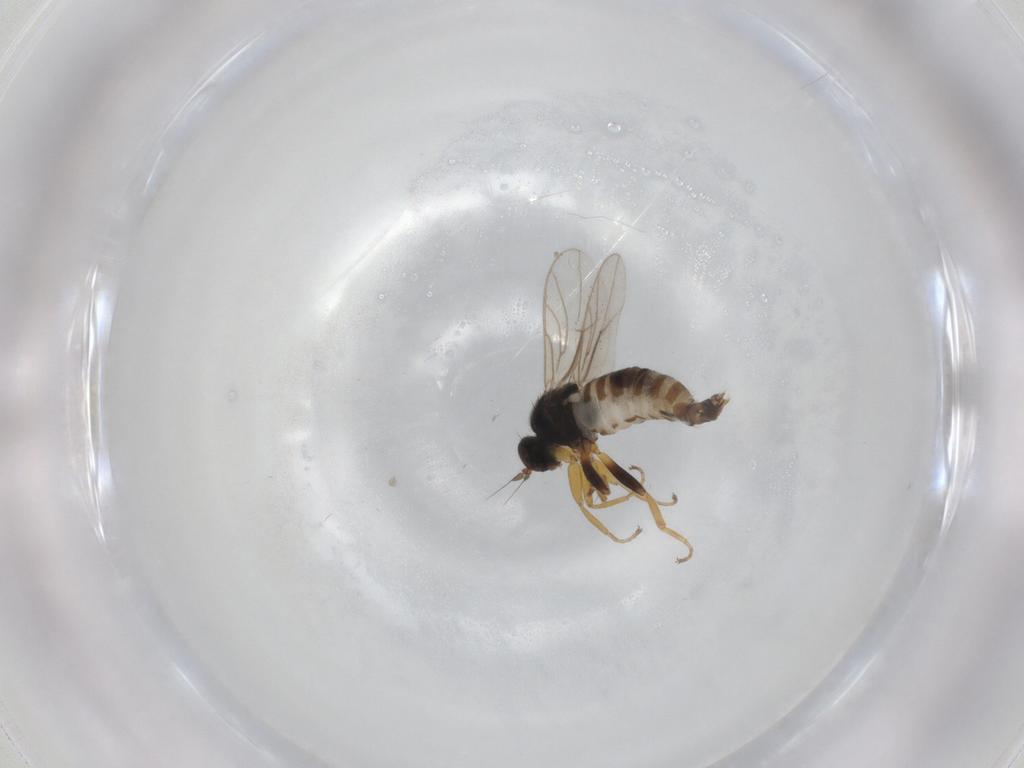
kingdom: Animalia
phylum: Arthropoda
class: Insecta
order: Diptera
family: Hybotidae
